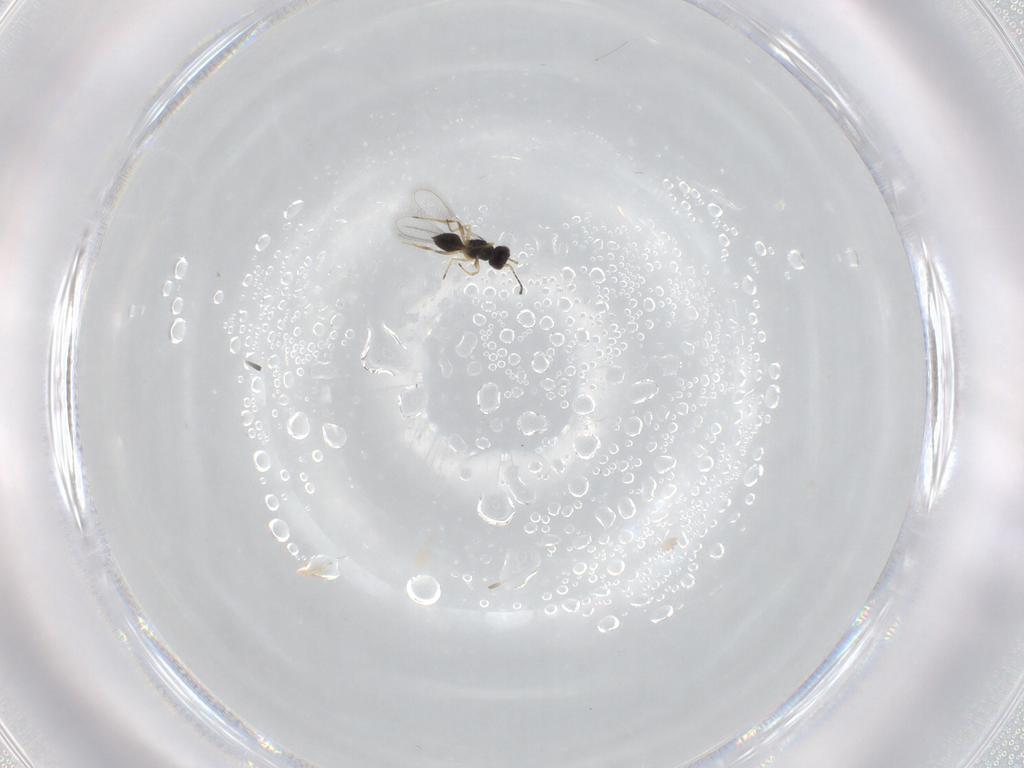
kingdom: Animalia
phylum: Arthropoda
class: Insecta
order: Hymenoptera
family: Mymaridae
